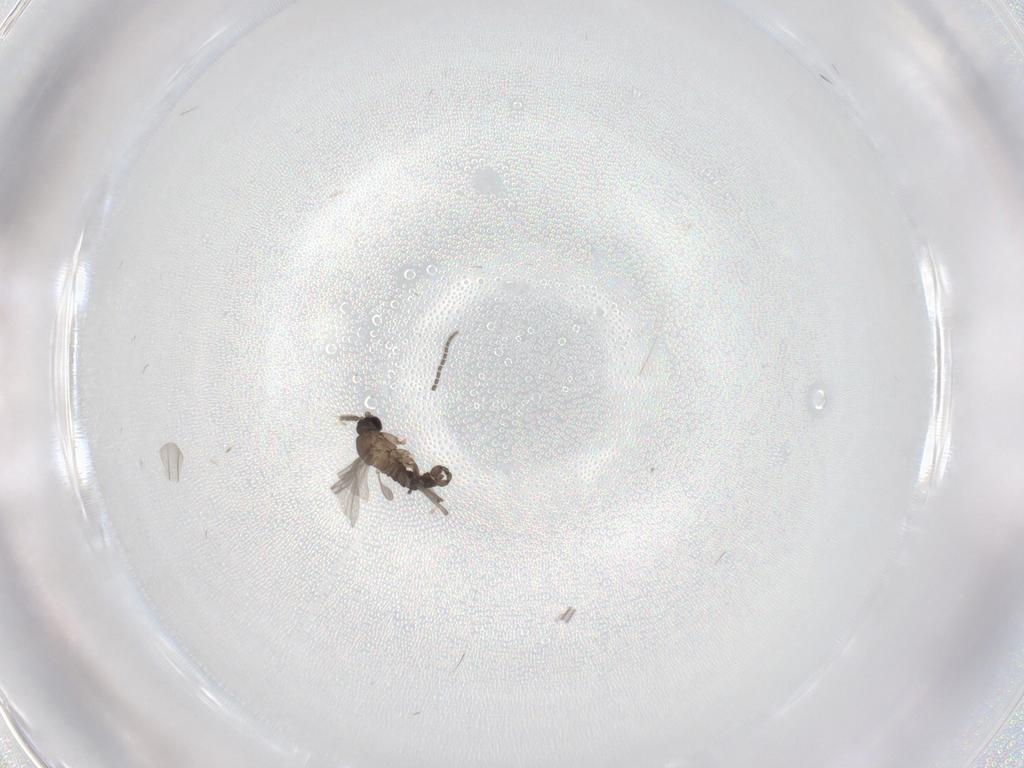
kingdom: Animalia
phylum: Arthropoda
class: Insecta
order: Diptera
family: Sciaridae
